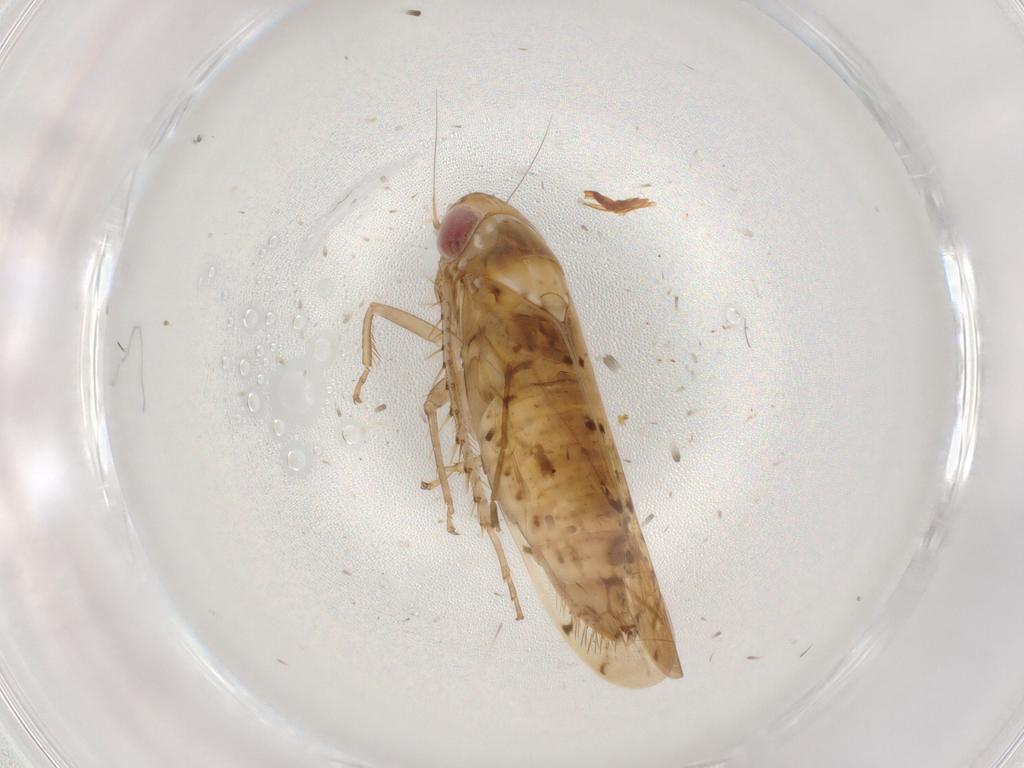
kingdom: Animalia
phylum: Arthropoda
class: Insecta
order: Hemiptera
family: Cicadellidae
